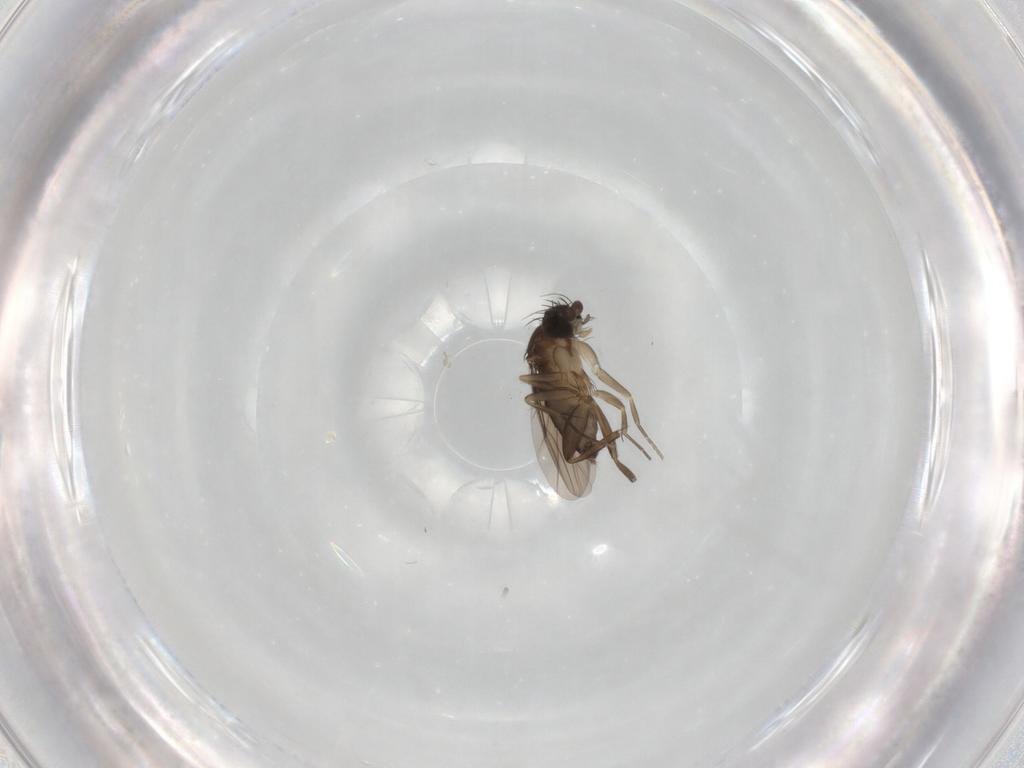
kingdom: Animalia
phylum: Arthropoda
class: Insecta
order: Diptera
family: Phoridae
